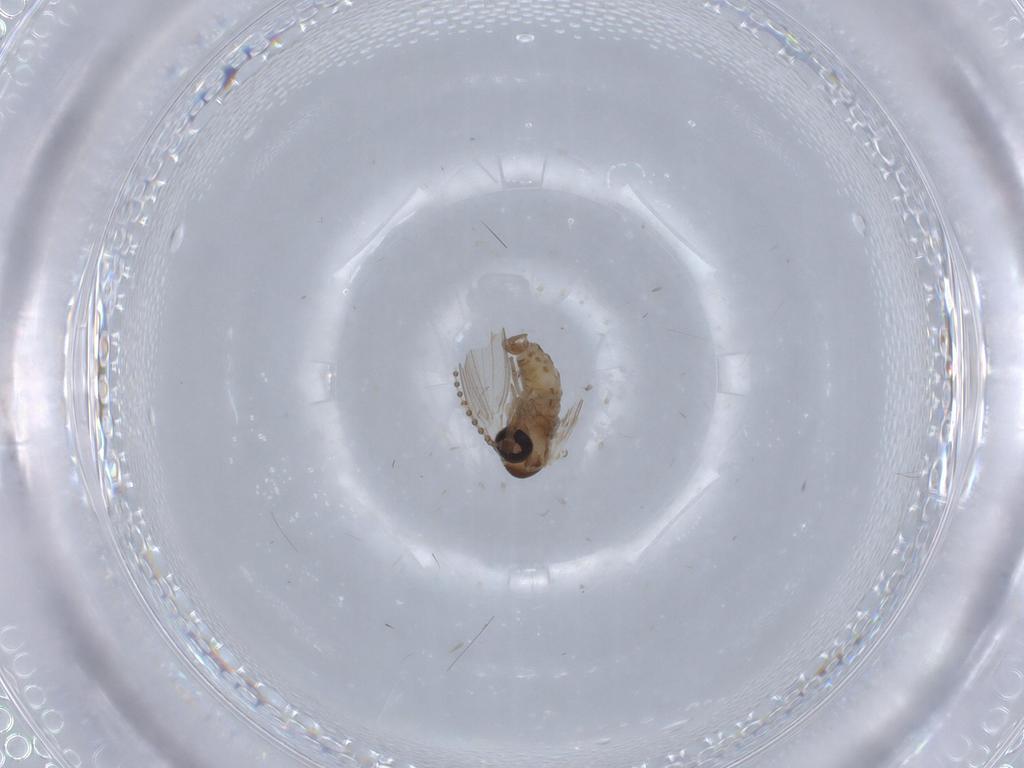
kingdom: Animalia
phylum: Arthropoda
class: Insecta
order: Diptera
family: Psychodidae
